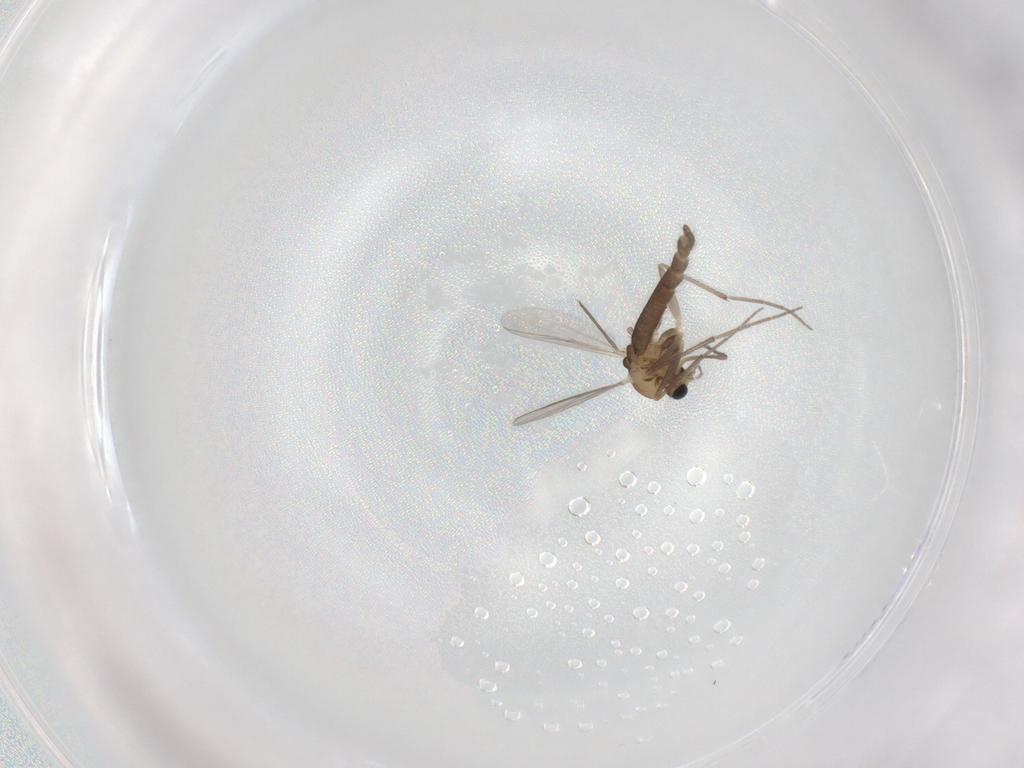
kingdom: Animalia
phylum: Arthropoda
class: Insecta
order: Diptera
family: Chironomidae
